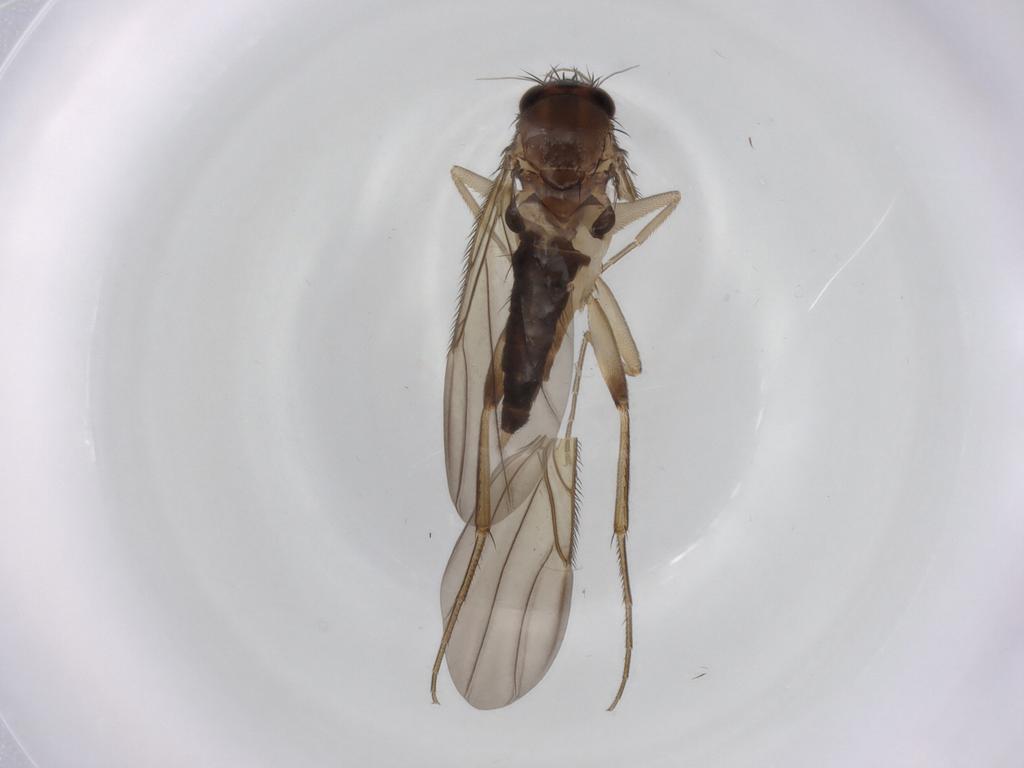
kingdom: Animalia
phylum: Arthropoda
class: Insecta
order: Diptera
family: Phoridae
